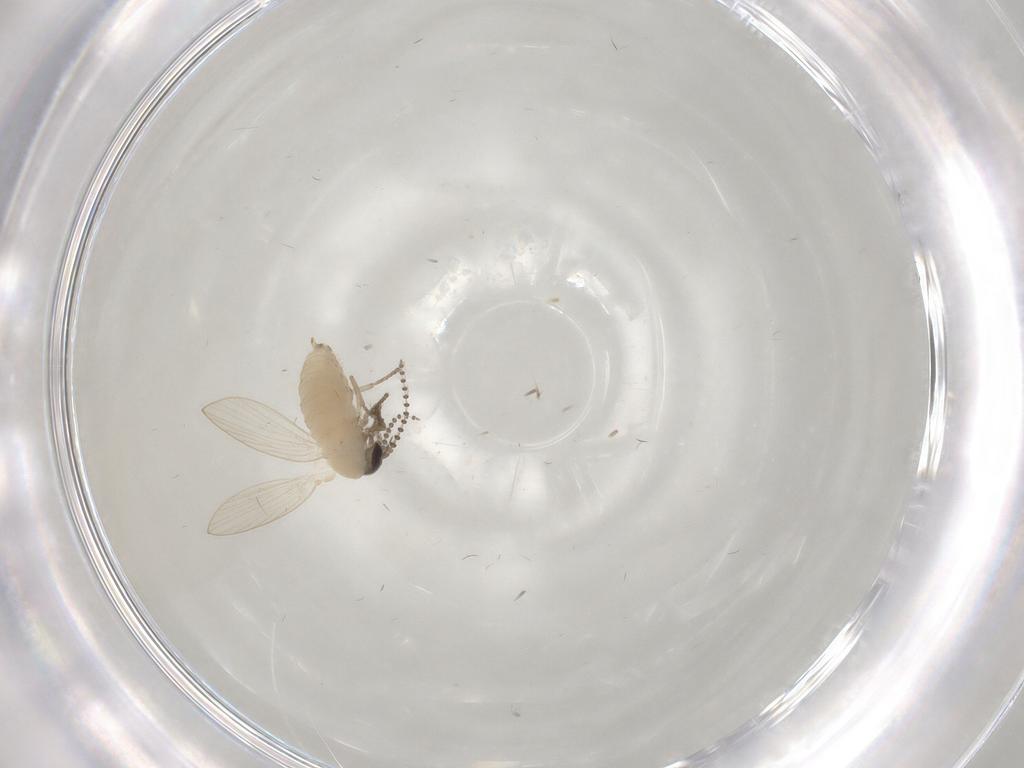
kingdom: Animalia
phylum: Arthropoda
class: Insecta
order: Diptera
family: Psychodidae
